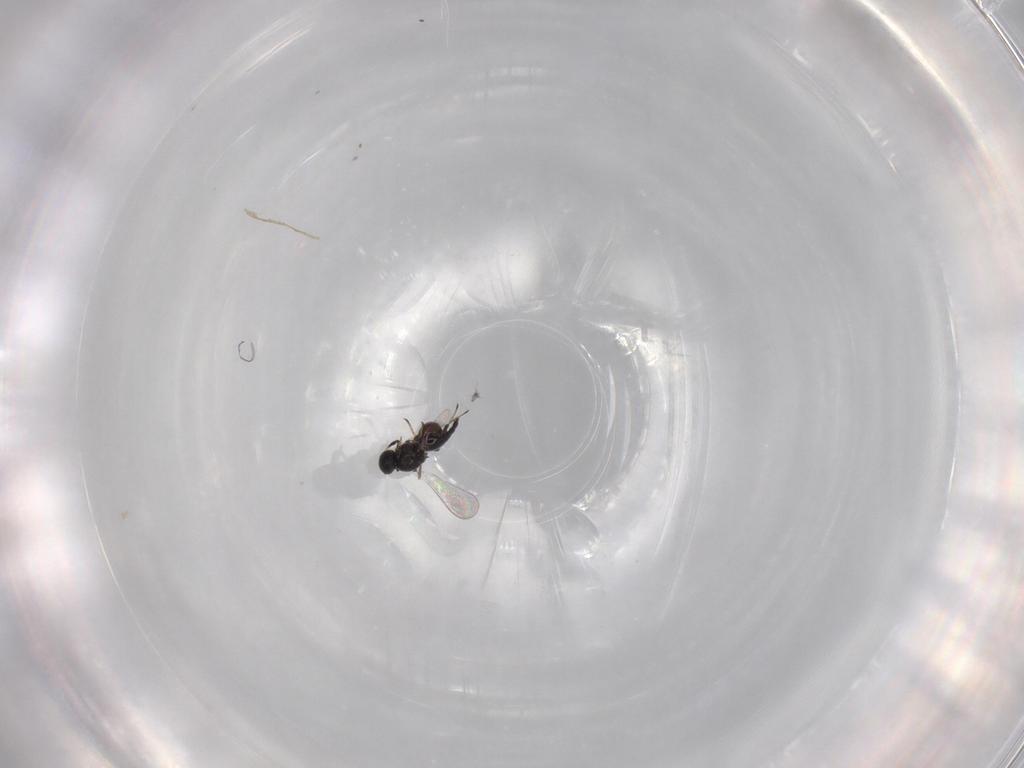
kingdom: Animalia
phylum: Arthropoda
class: Insecta
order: Hymenoptera
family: Platygastridae
